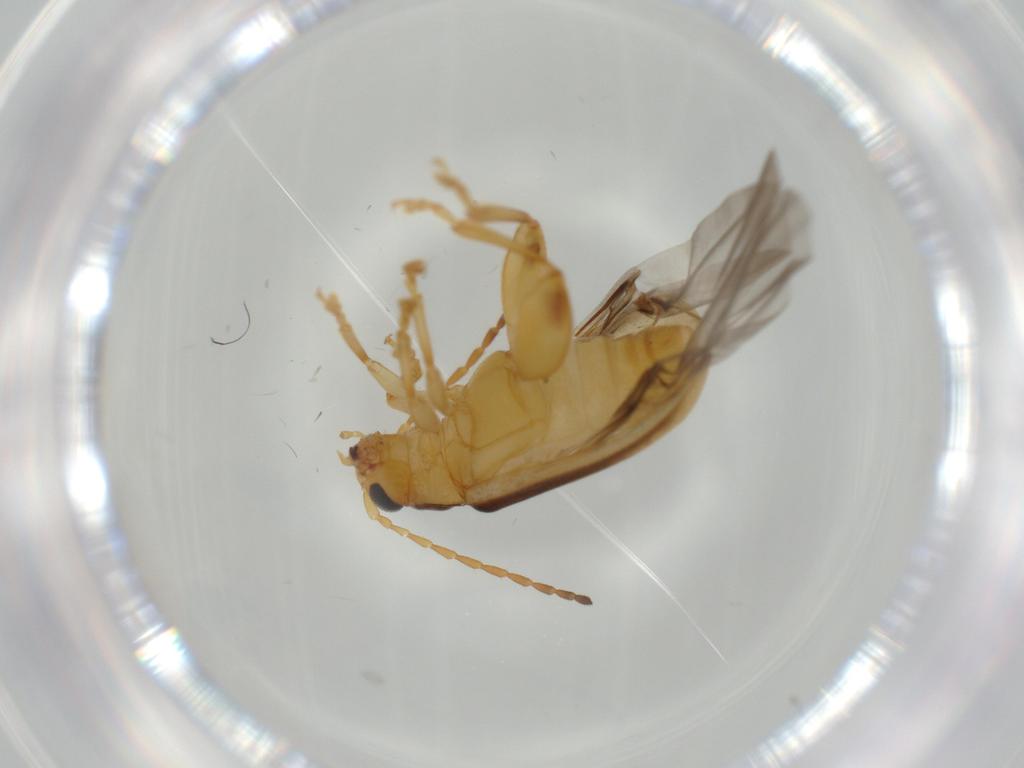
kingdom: Animalia
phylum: Arthropoda
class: Insecta
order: Coleoptera
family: Chrysomelidae
